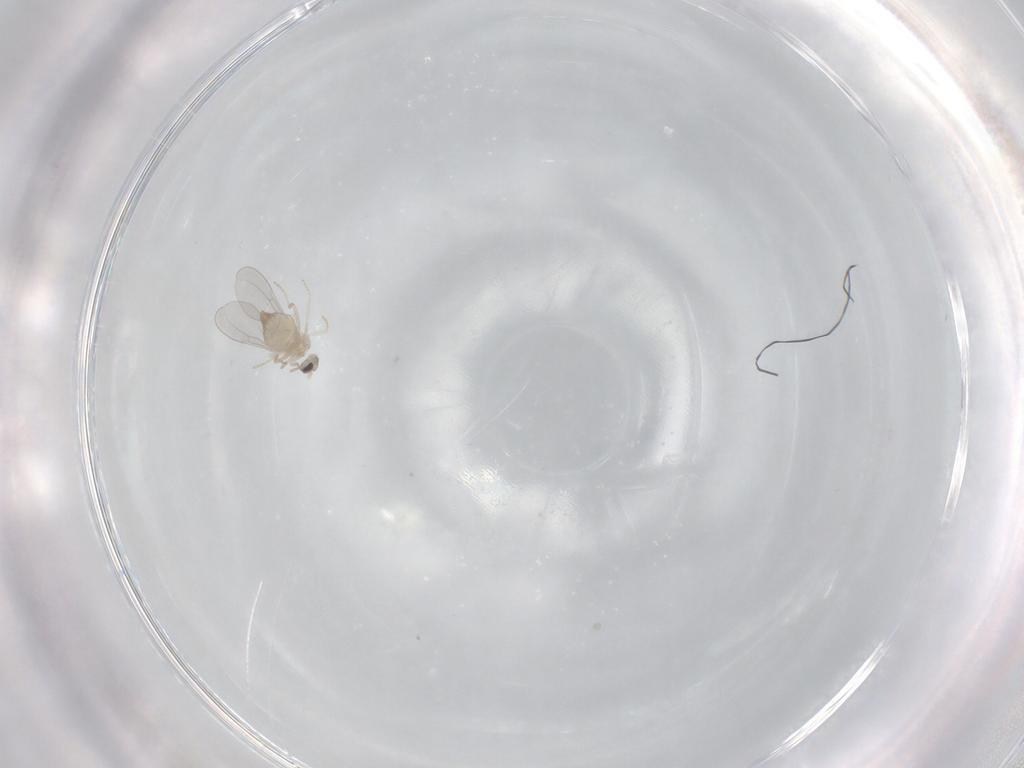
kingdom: Animalia
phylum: Arthropoda
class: Insecta
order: Diptera
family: Cecidomyiidae
